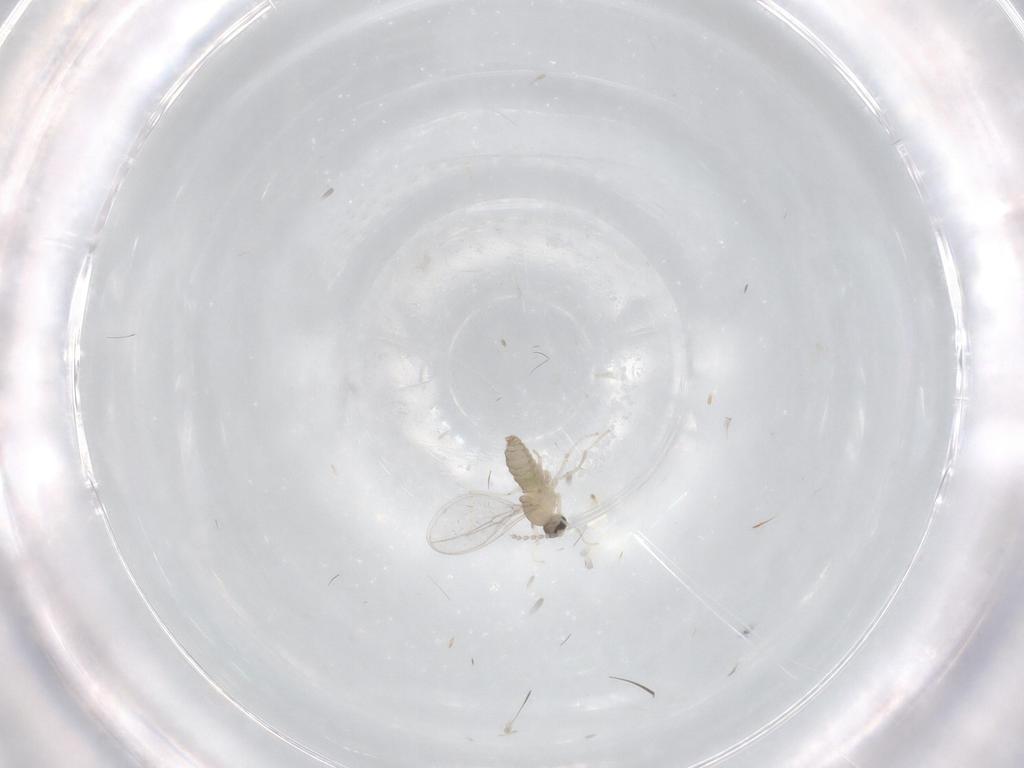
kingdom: Animalia
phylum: Arthropoda
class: Insecta
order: Diptera
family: Cecidomyiidae
